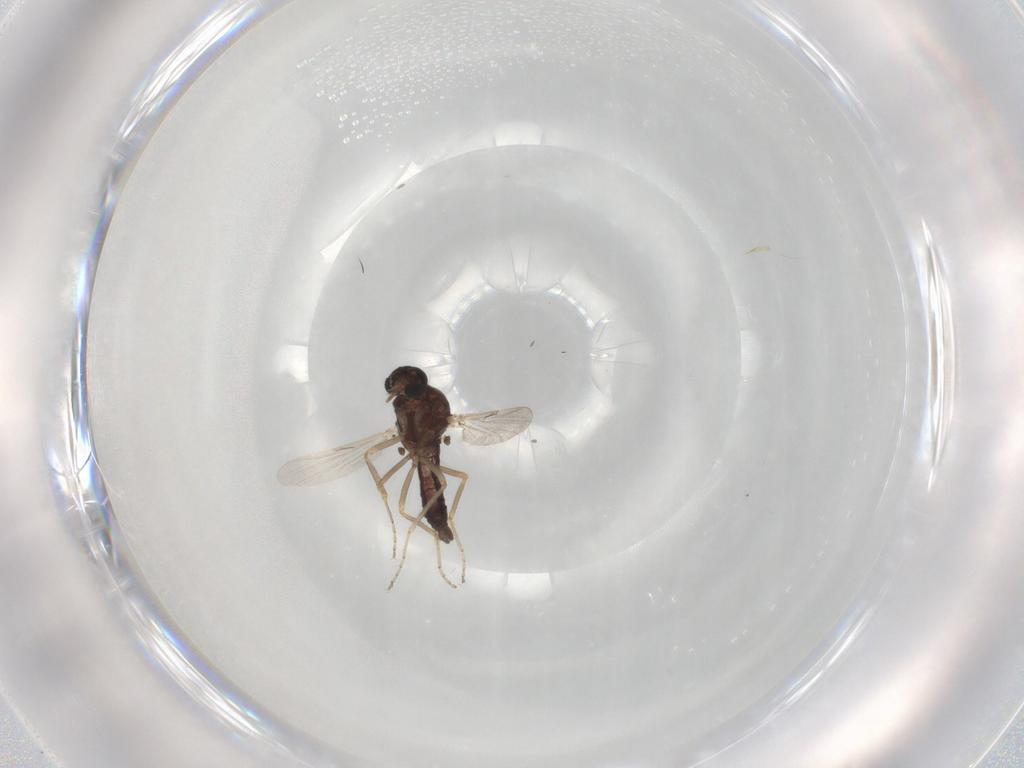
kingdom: Animalia
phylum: Arthropoda
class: Insecta
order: Diptera
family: Ceratopogonidae
